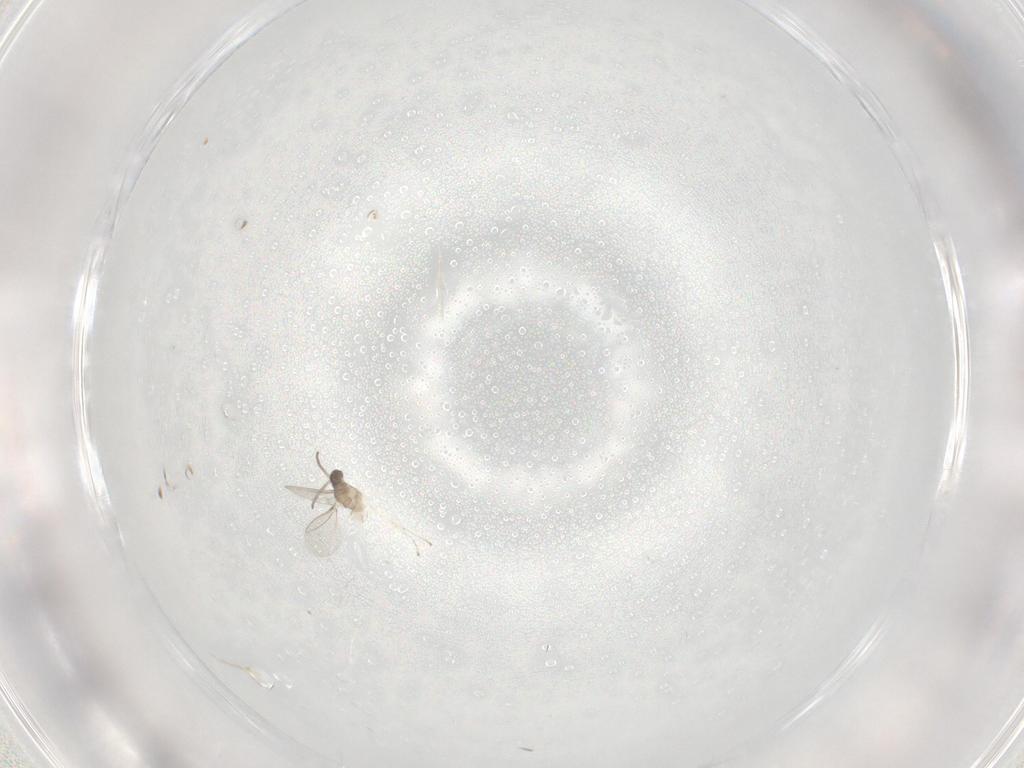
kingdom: Animalia
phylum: Arthropoda
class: Insecta
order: Diptera
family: Cecidomyiidae
